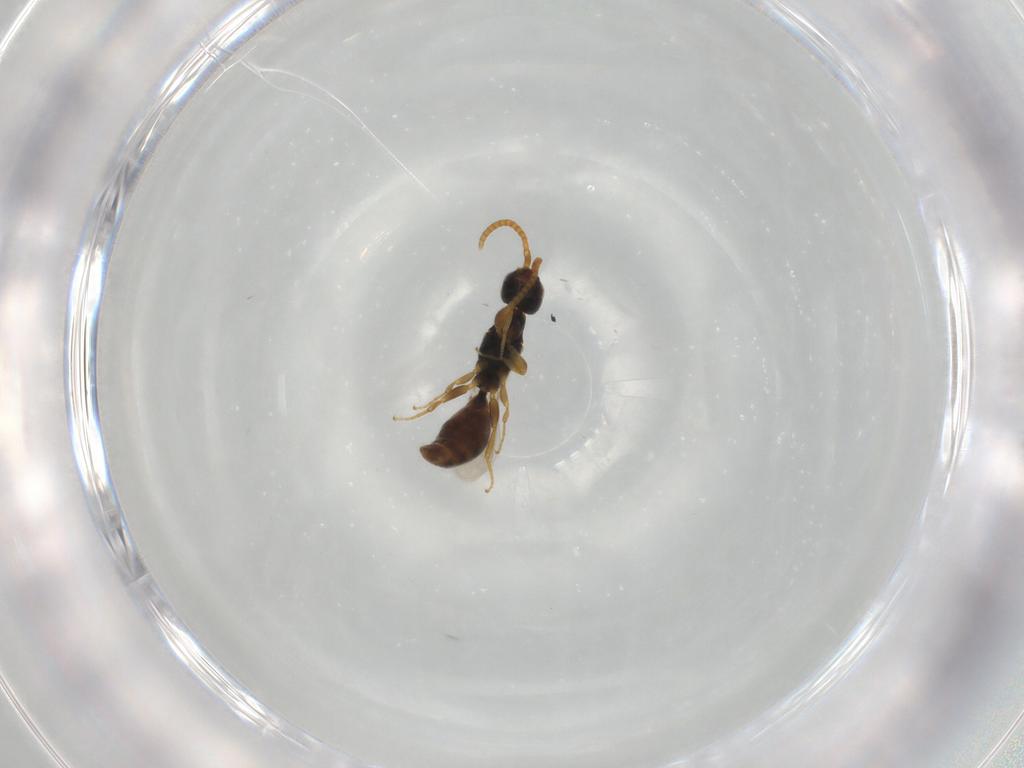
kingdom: Animalia
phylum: Arthropoda
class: Insecta
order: Hymenoptera
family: Bethylidae
